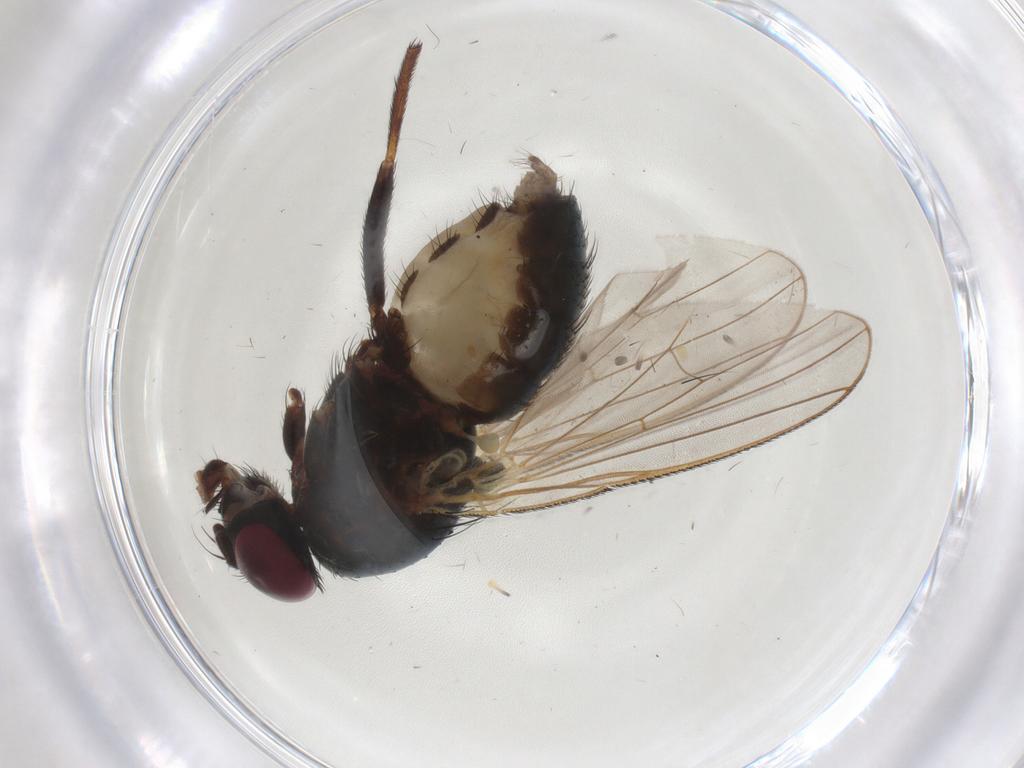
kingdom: Animalia
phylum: Arthropoda
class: Insecta
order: Diptera
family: Fanniidae
